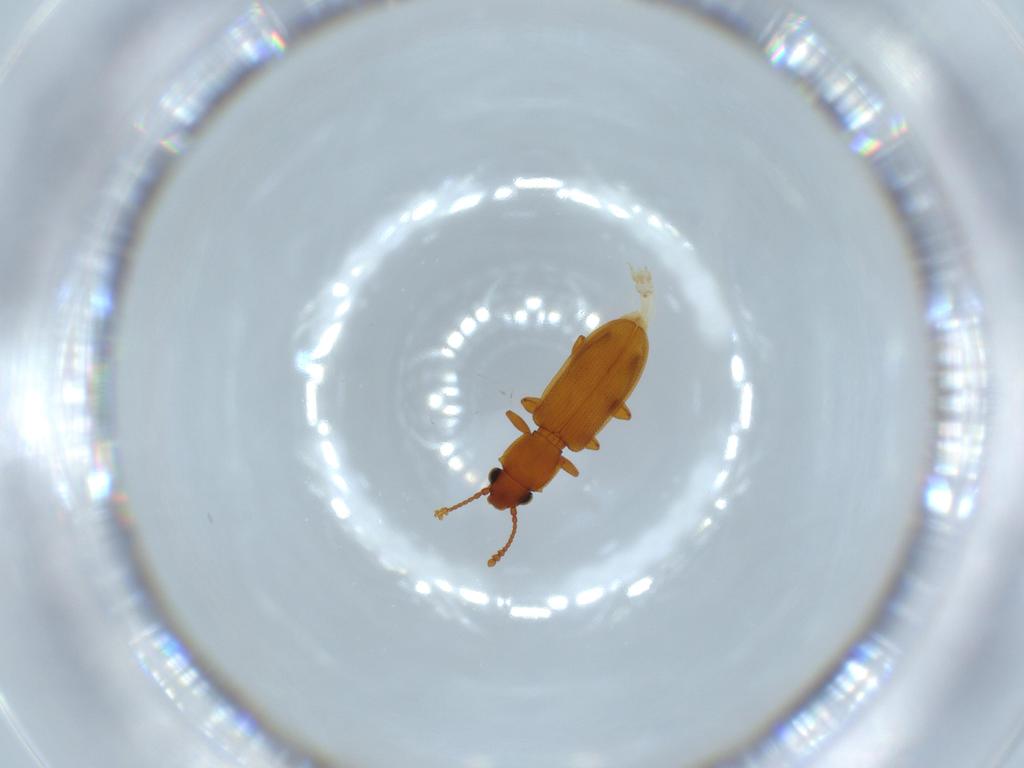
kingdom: Animalia
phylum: Arthropoda
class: Insecta
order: Coleoptera
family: Silvanidae
